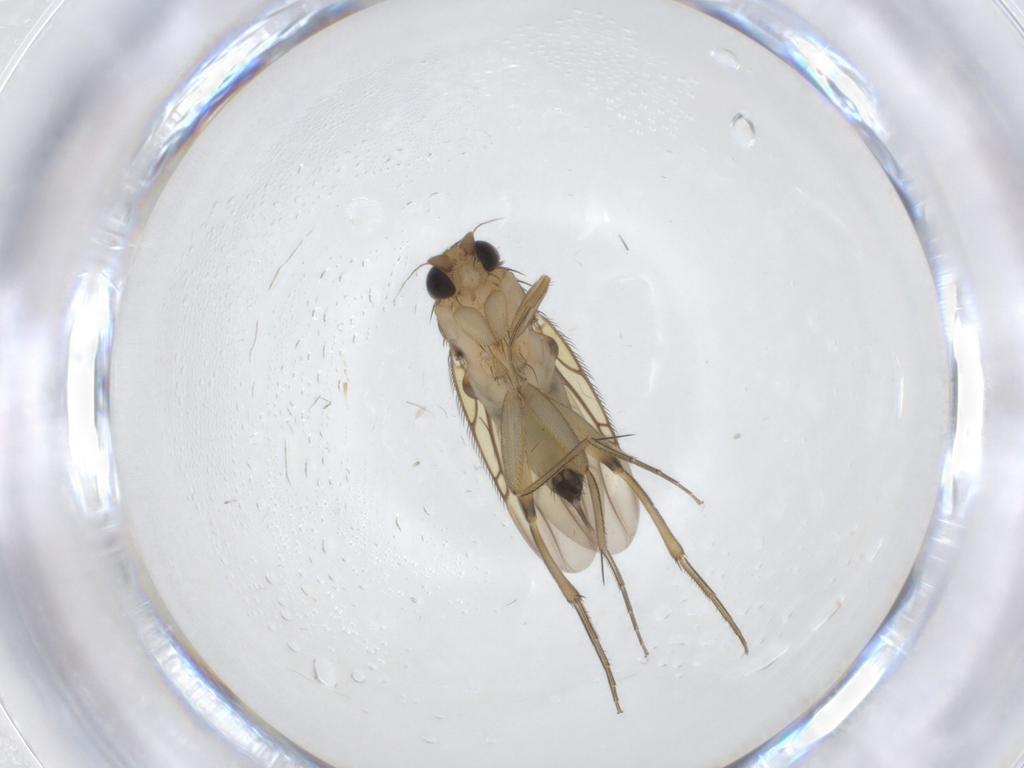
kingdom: Animalia
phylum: Arthropoda
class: Insecta
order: Diptera
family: Phoridae
